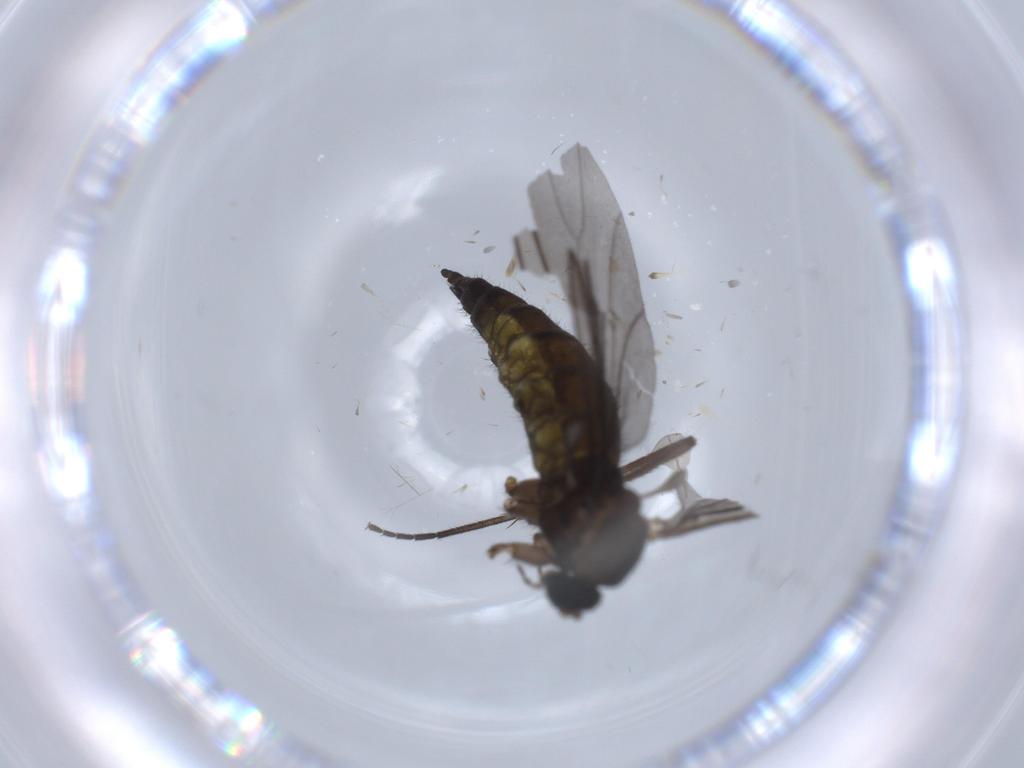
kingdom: Animalia
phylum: Arthropoda
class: Insecta
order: Diptera
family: Sciaridae
